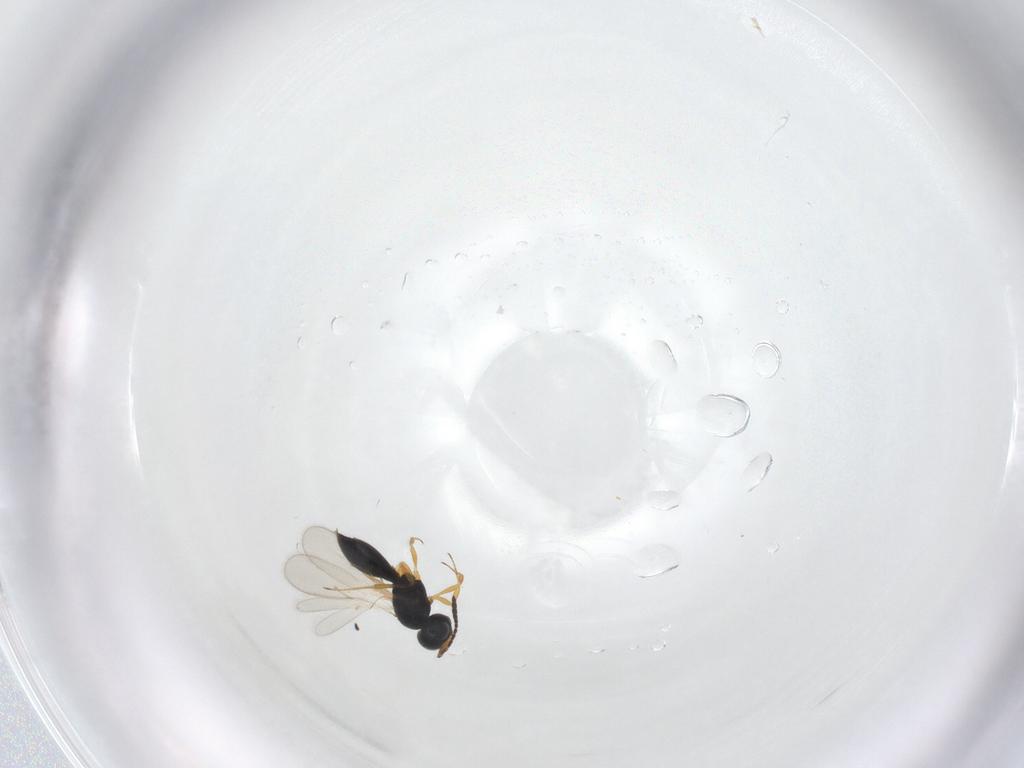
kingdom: Animalia
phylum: Arthropoda
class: Insecta
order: Hymenoptera
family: Scelionidae
